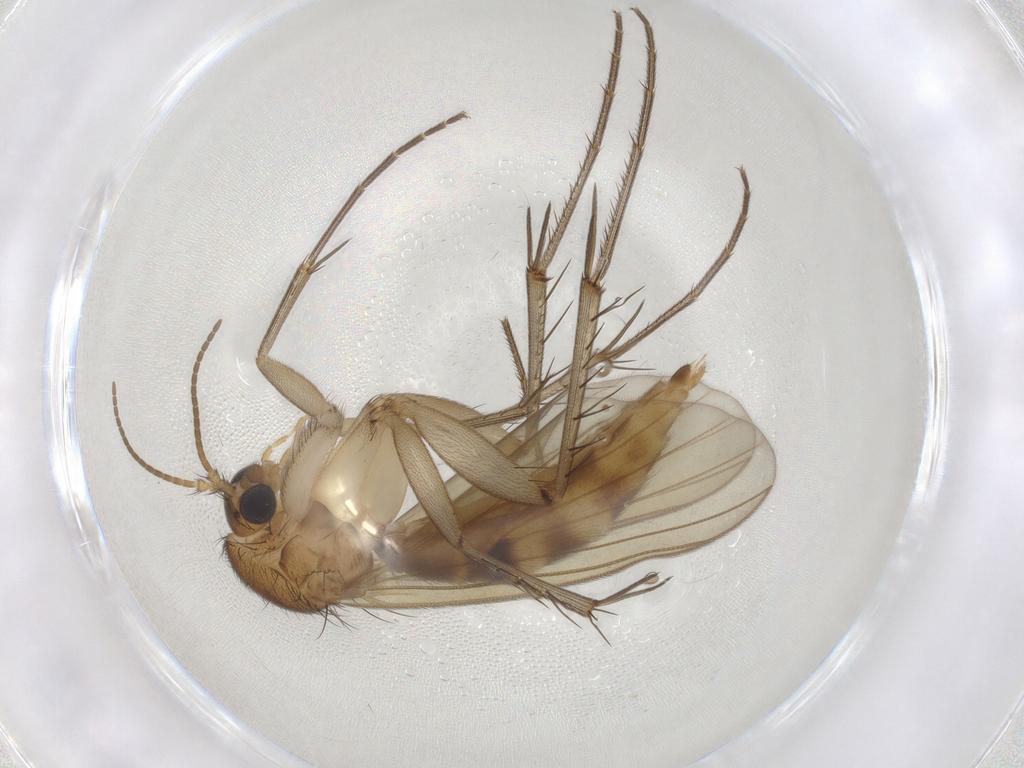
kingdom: Animalia
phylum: Arthropoda
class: Insecta
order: Diptera
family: Mycetophilidae
